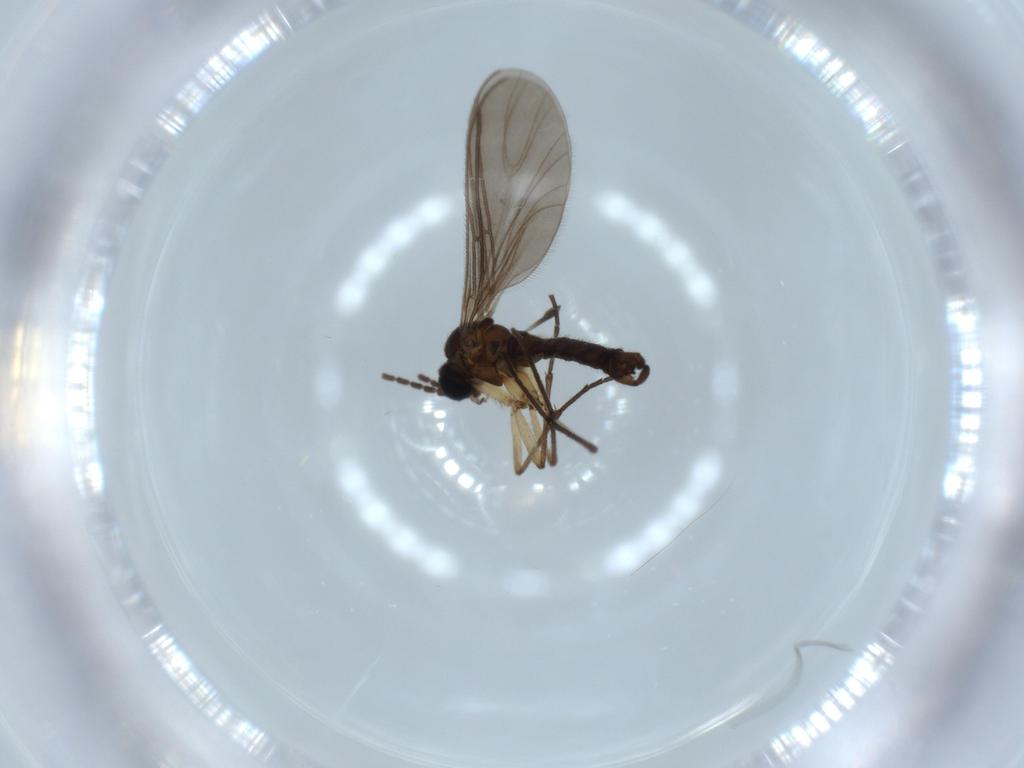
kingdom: Animalia
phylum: Arthropoda
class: Insecta
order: Diptera
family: Sciaridae
